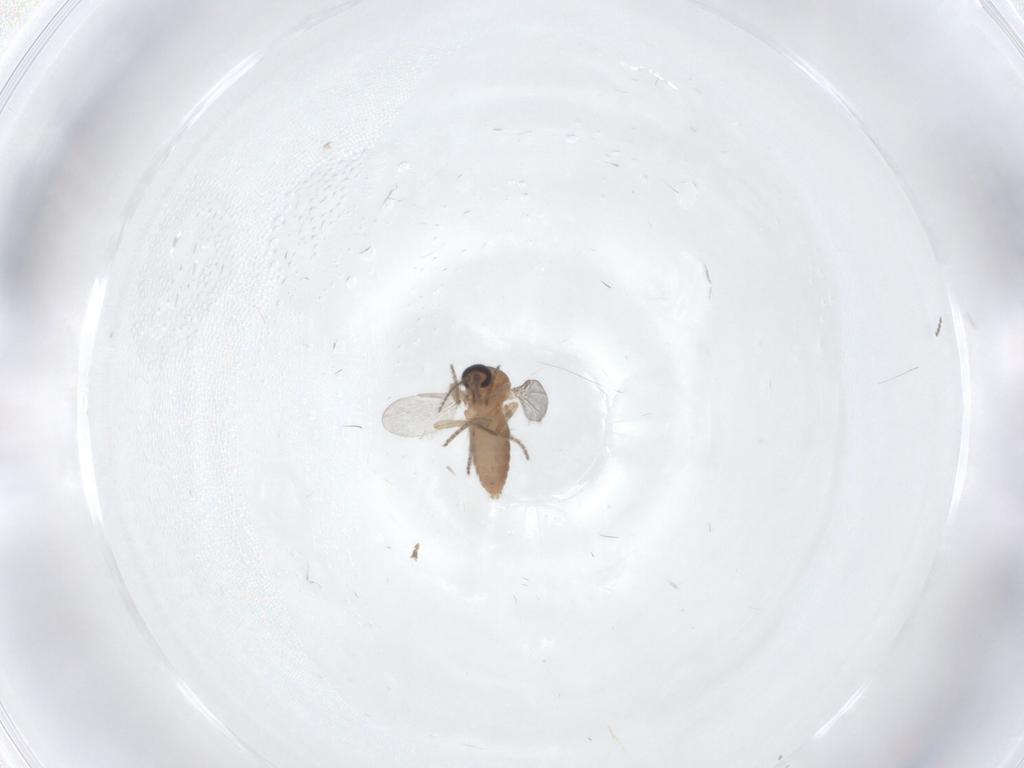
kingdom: Animalia
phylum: Arthropoda
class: Insecta
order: Diptera
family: Ceratopogonidae
